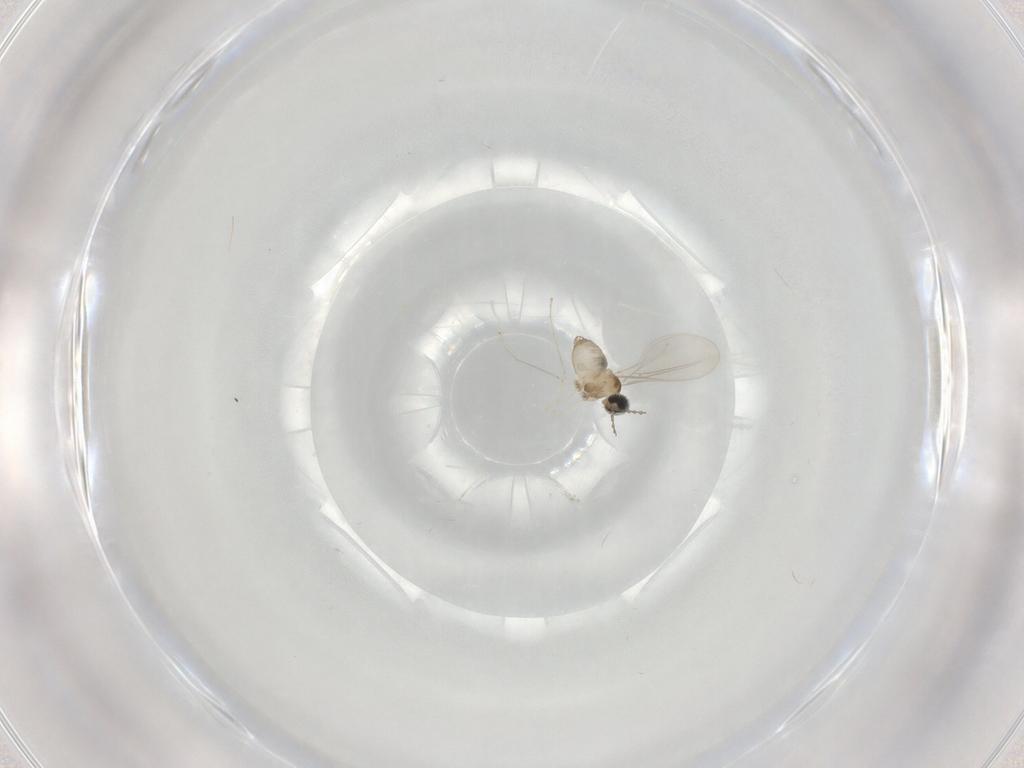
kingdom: Animalia
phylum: Arthropoda
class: Insecta
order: Diptera
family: Cecidomyiidae
